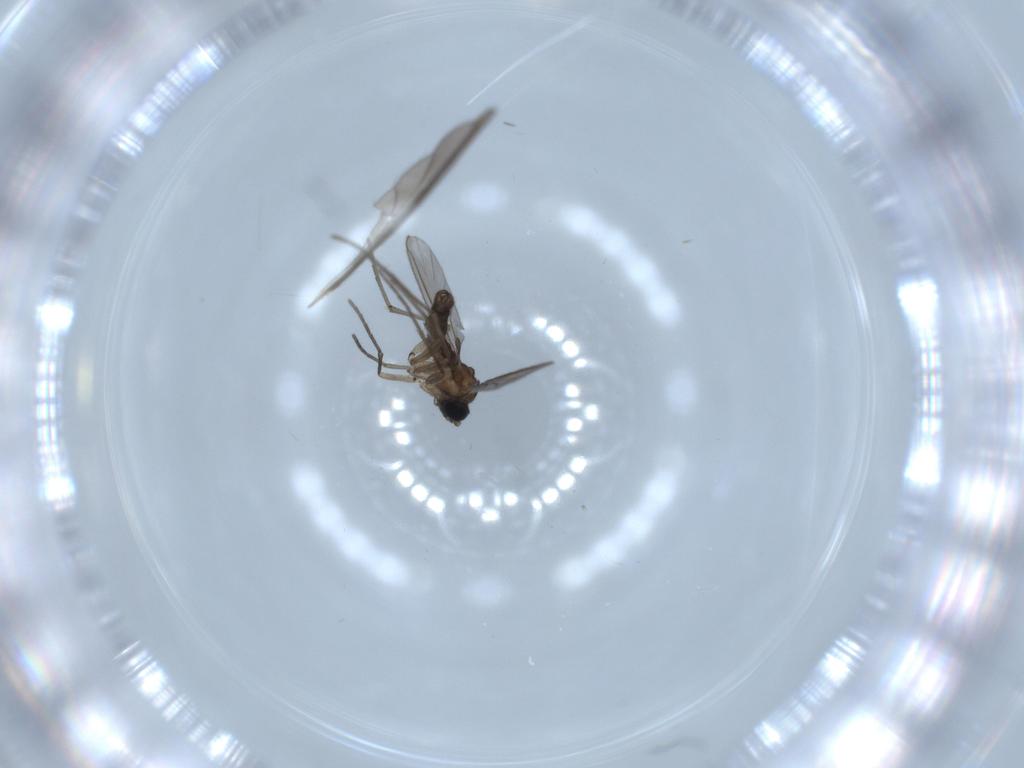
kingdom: Animalia
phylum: Arthropoda
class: Insecta
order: Diptera
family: Sciaridae
